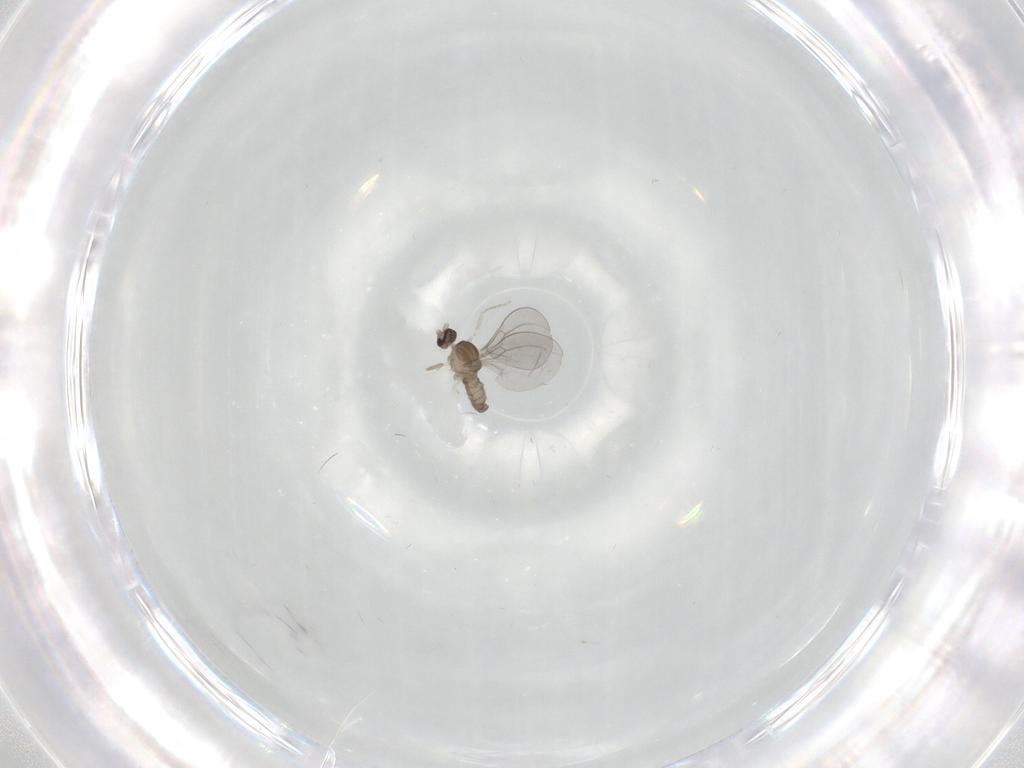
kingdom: Animalia
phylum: Arthropoda
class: Insecta
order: Diptera
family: Cecidomyiidae
